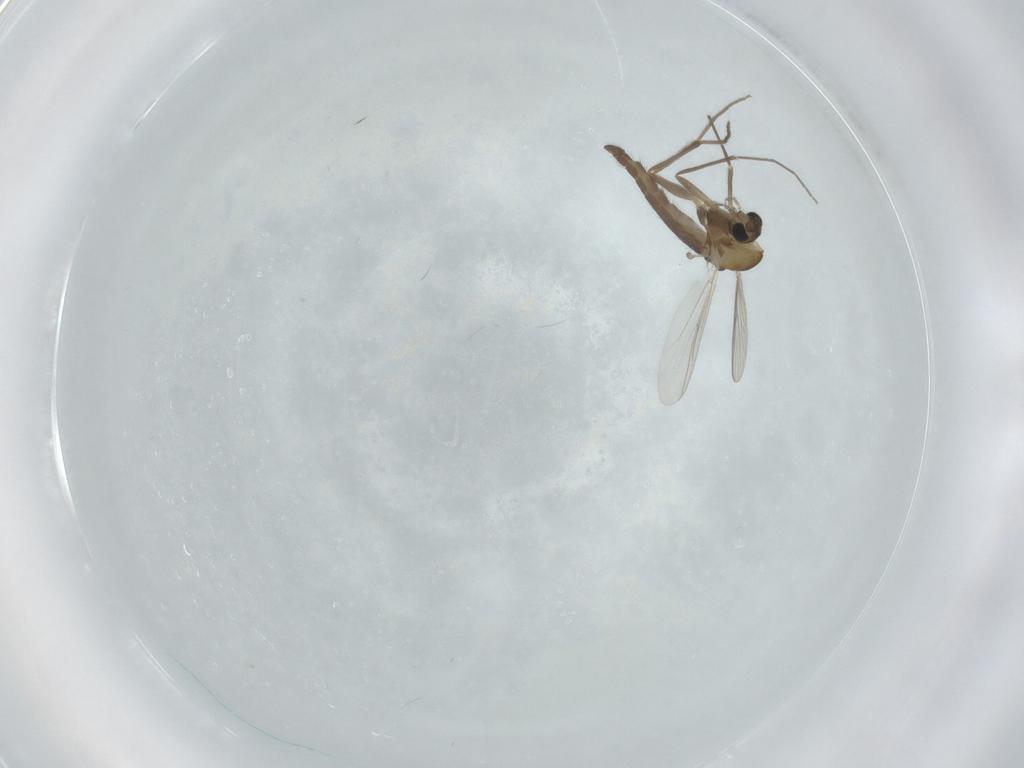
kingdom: Animalia
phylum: Arthropoda
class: Insecta
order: Diptera
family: Chironomidae
